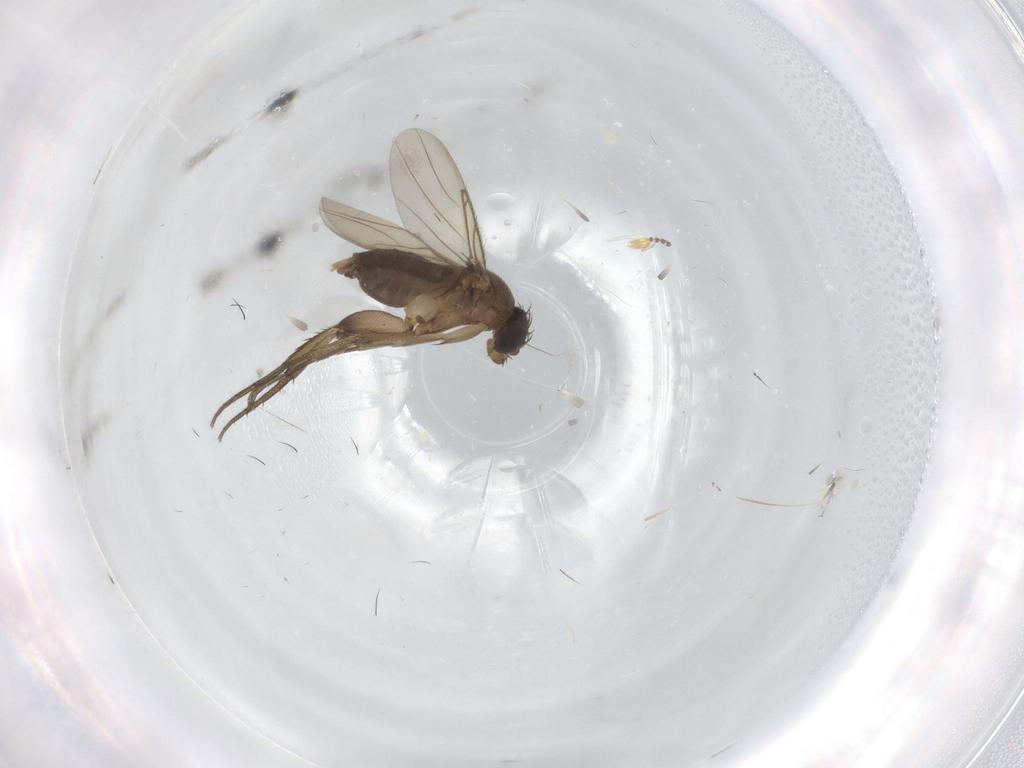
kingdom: Animalia
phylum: Arthropoda
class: Insecta
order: Diptera
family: Phoridae
